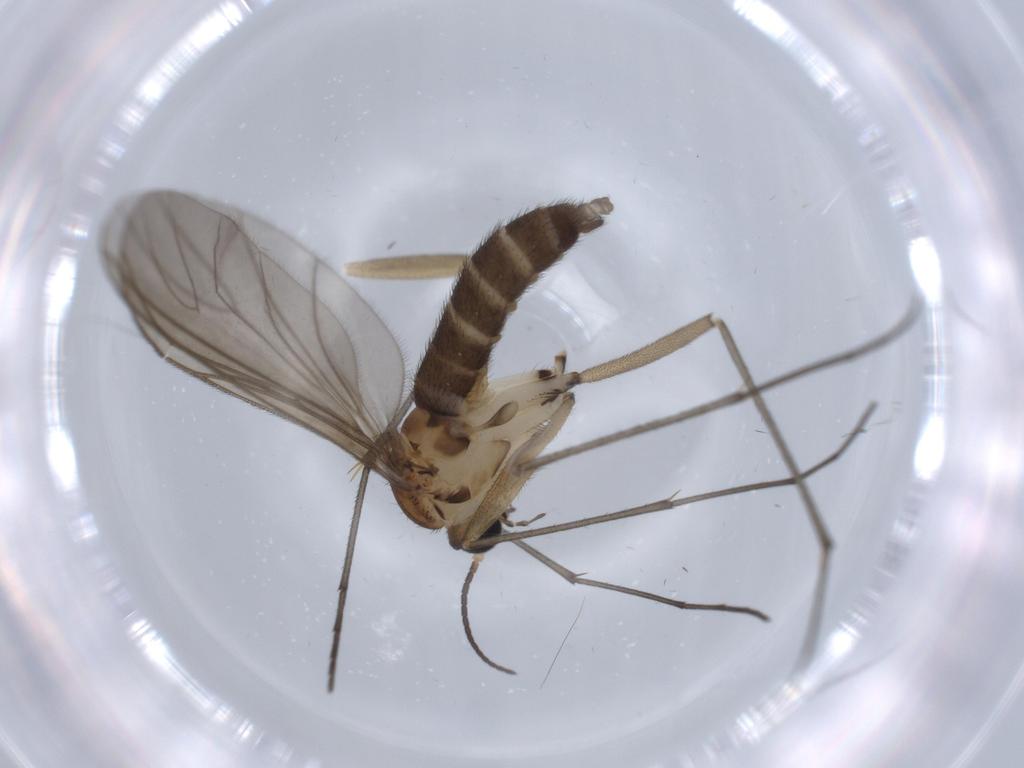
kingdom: Animalia
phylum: Arthropoda
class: Insecta
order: Diptera
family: Sciaridae
